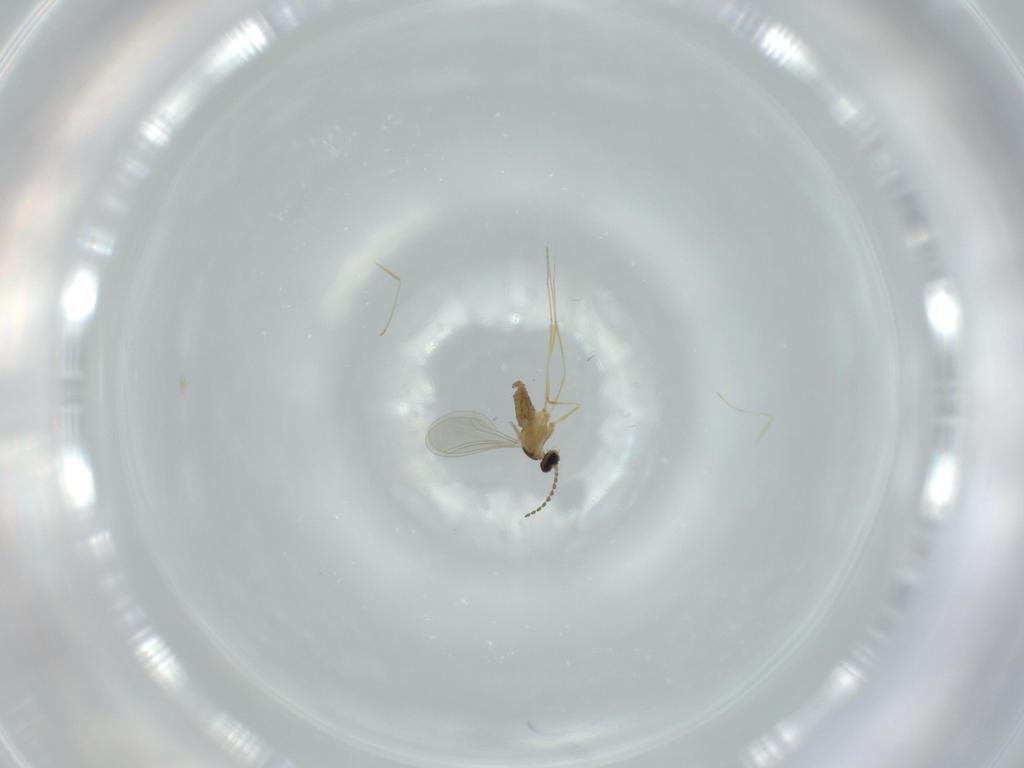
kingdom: Animalia
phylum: Arthropoda
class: Insecta
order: Diptera
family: Cecidomyiidae
